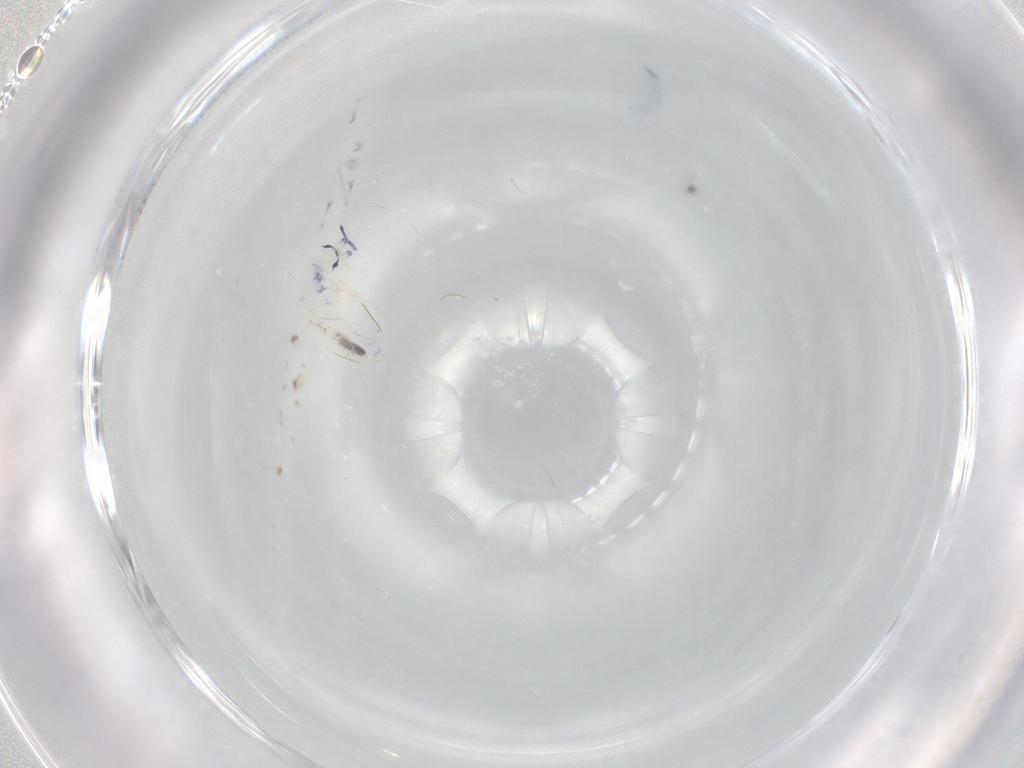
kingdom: Animalia
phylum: Arthropoda
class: Collembola
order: Entomobryomorpha
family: Entomobryidae
